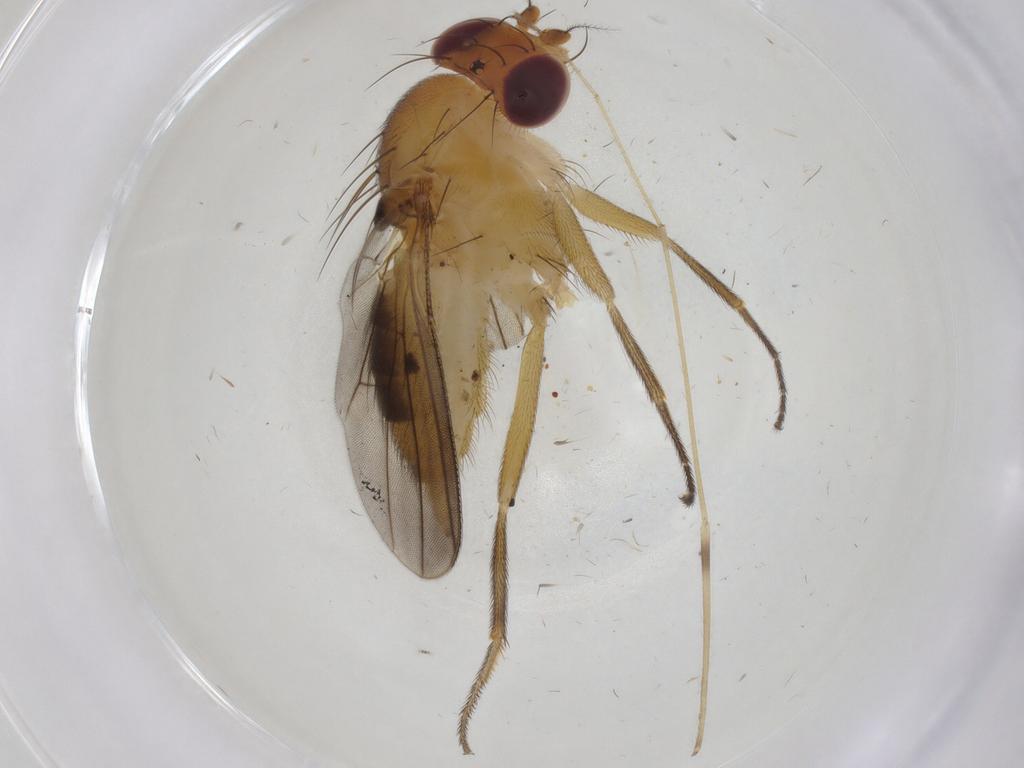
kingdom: Animalia
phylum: Arthropoda
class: Insecta
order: Diptera
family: Clusiidae
